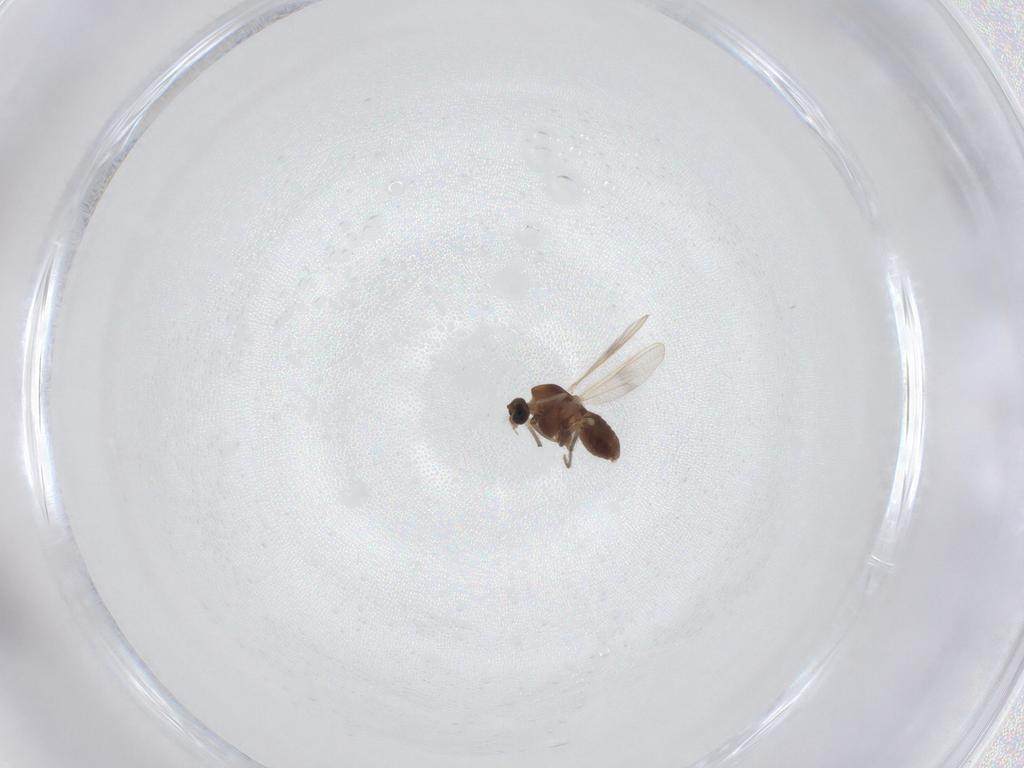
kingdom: Animalia
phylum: Arthropoda
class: Insecta
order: Diptera
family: Chironomidae
